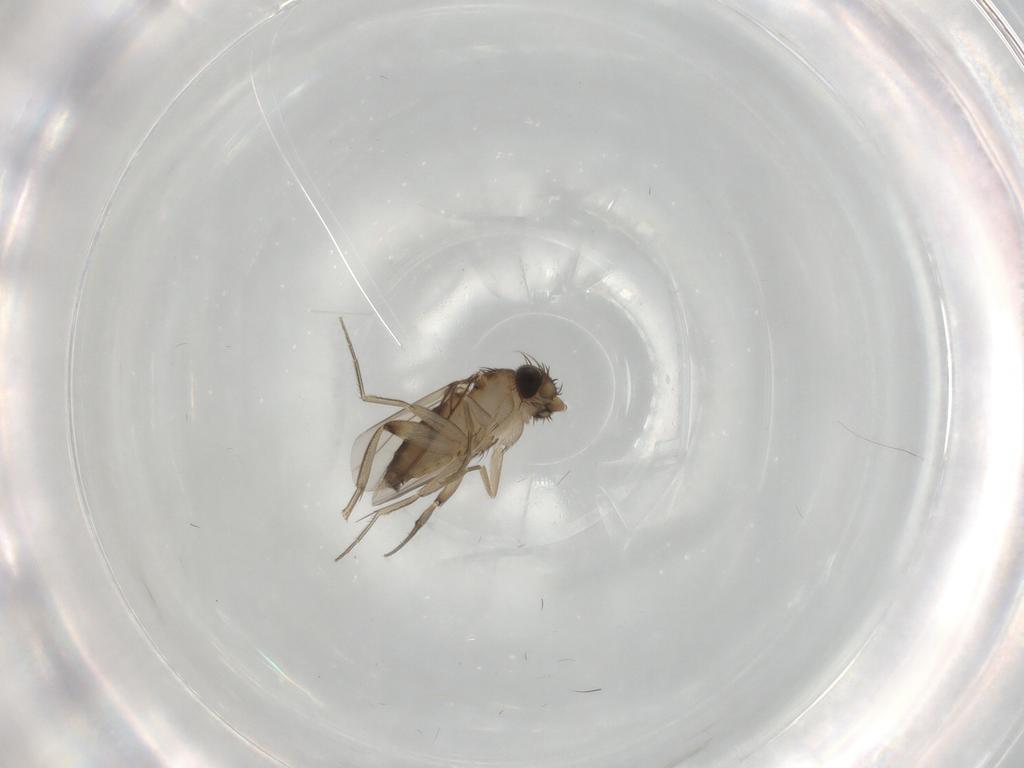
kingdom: Animalia
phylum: Arthropoda
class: Insecta
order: Diptera
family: Phoridae
